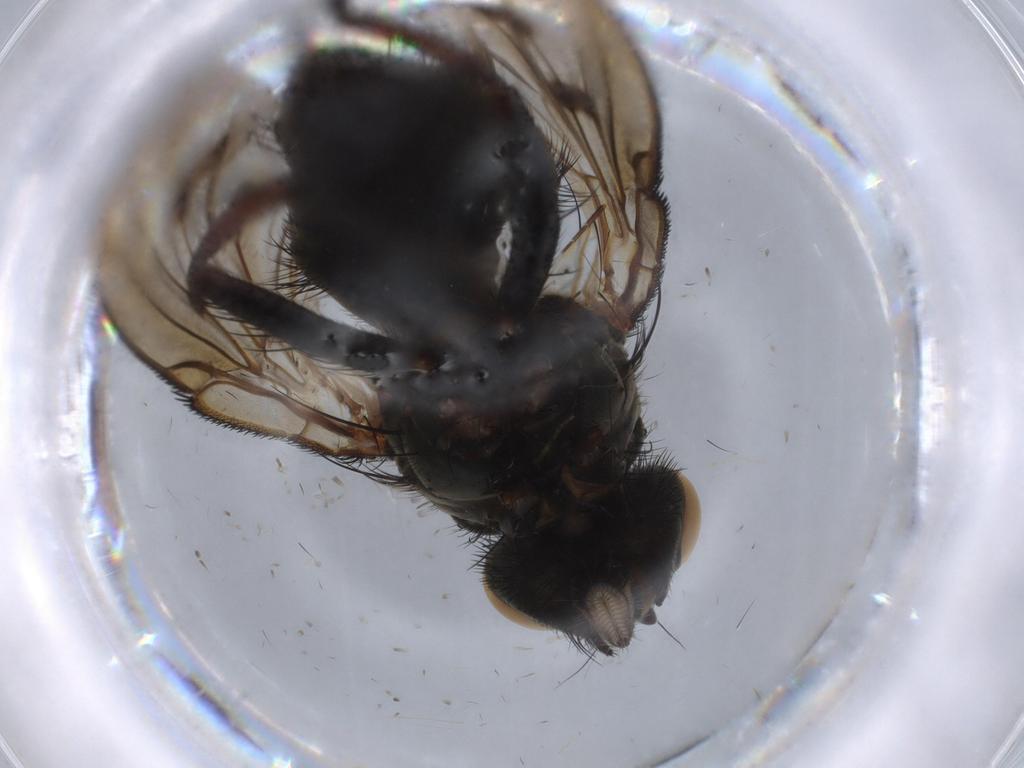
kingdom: Animalia
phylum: Arthropoda
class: Insecta
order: Diptera
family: Muscidae
